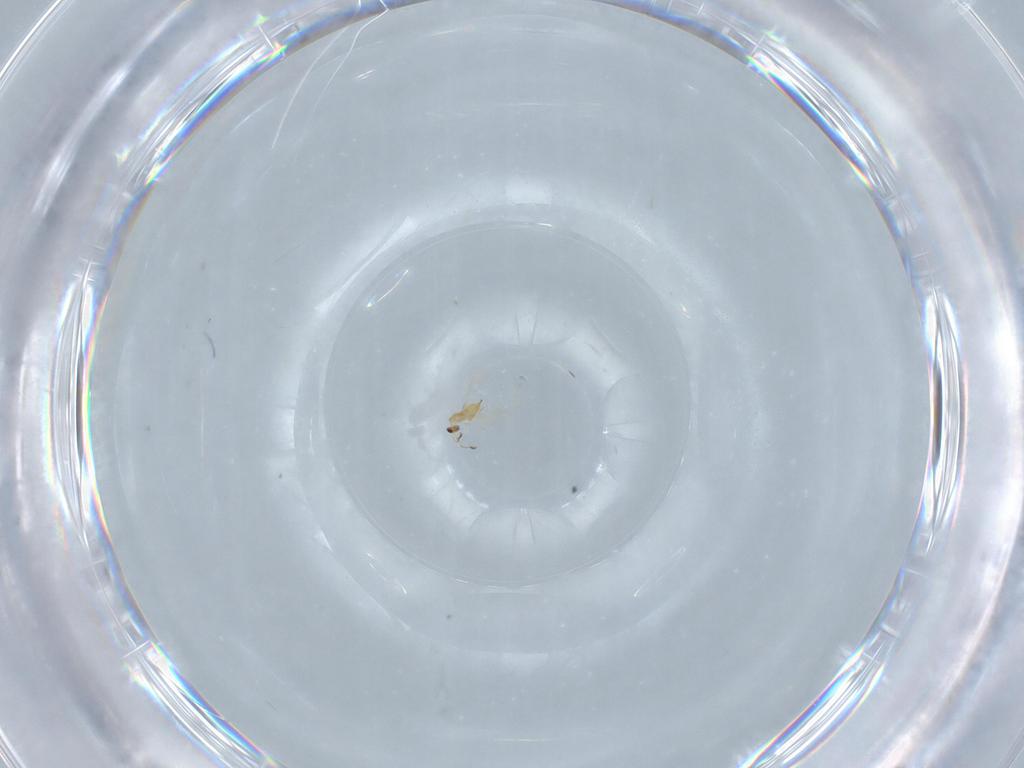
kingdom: Animalia
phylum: Arthropoda
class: Insecta
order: Hymenoptera
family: Mymaridae
